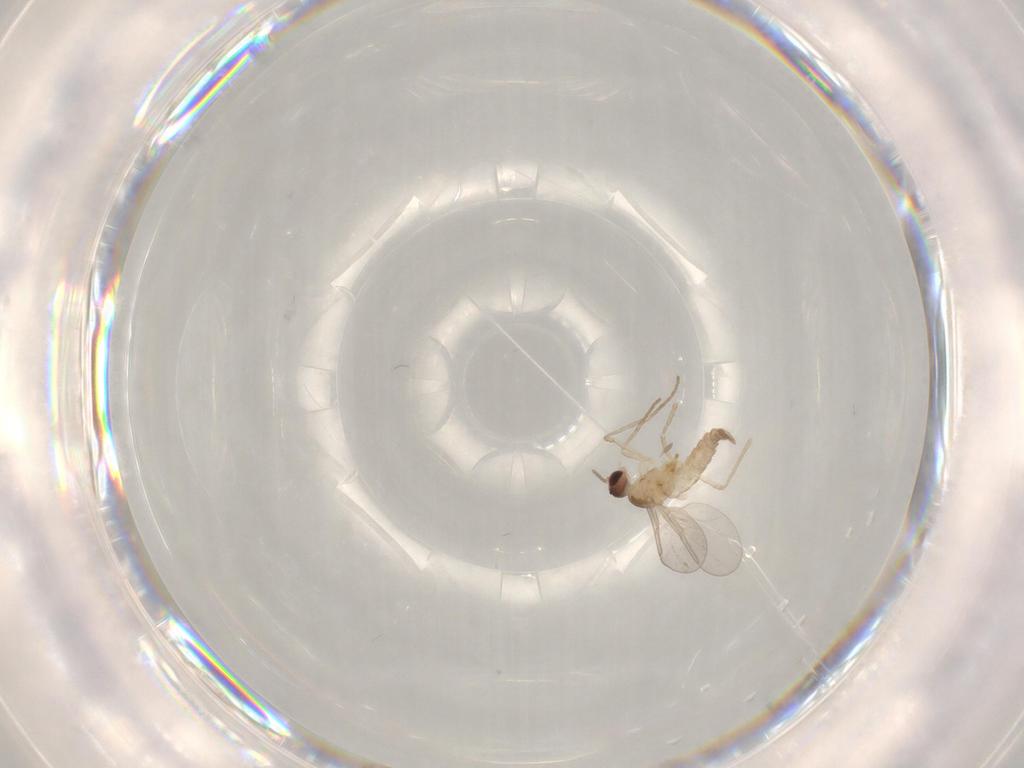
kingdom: Animalia
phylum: Arthropoda
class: Insecta
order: Diptera
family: Cecidomyiidae
